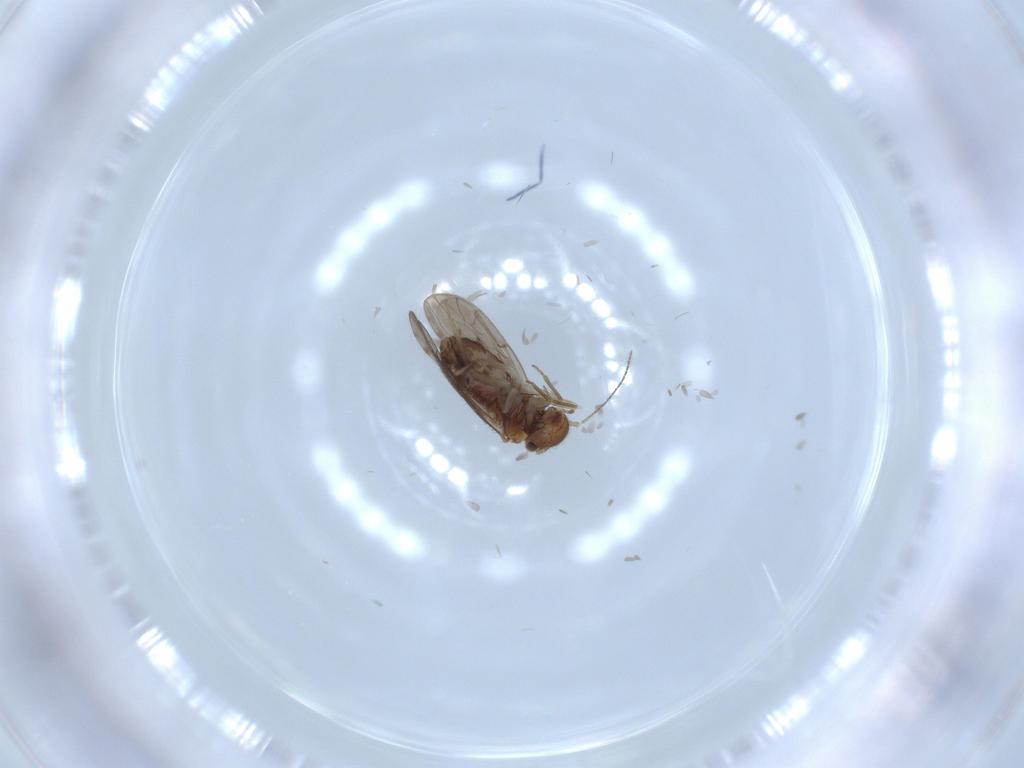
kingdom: Animalia
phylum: Arthropoda
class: Insecta
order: Psocodea
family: Ectopsocidae
